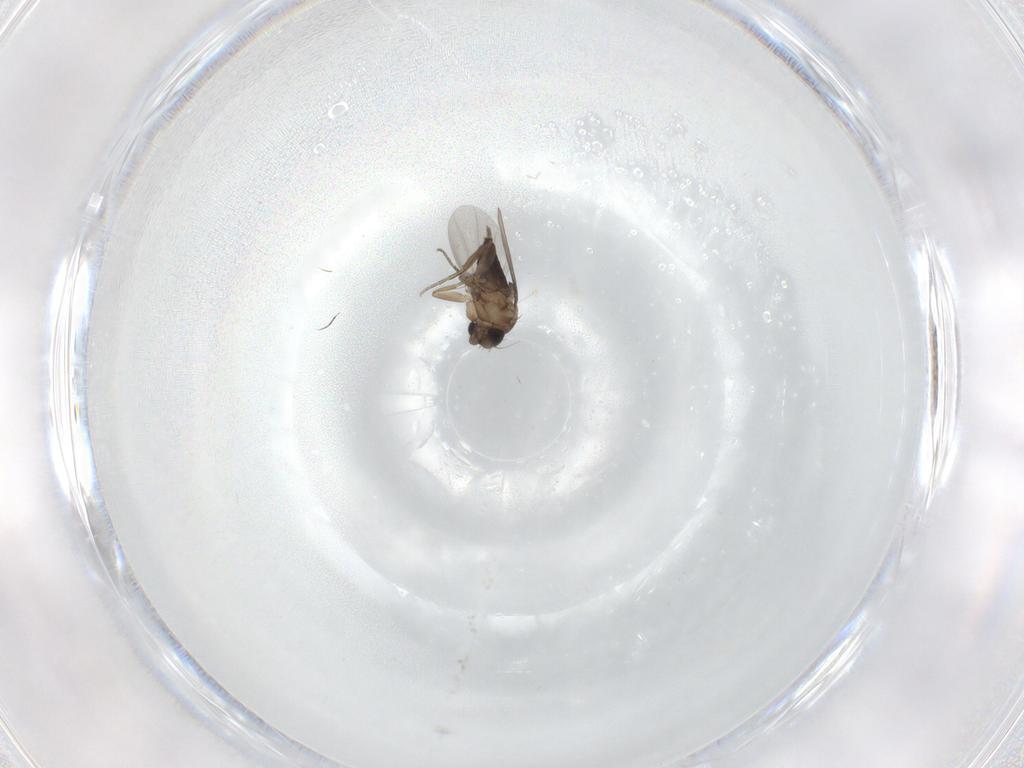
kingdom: Animalia
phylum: Arthropoda
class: Insecta
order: Diptera
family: Phoridae
